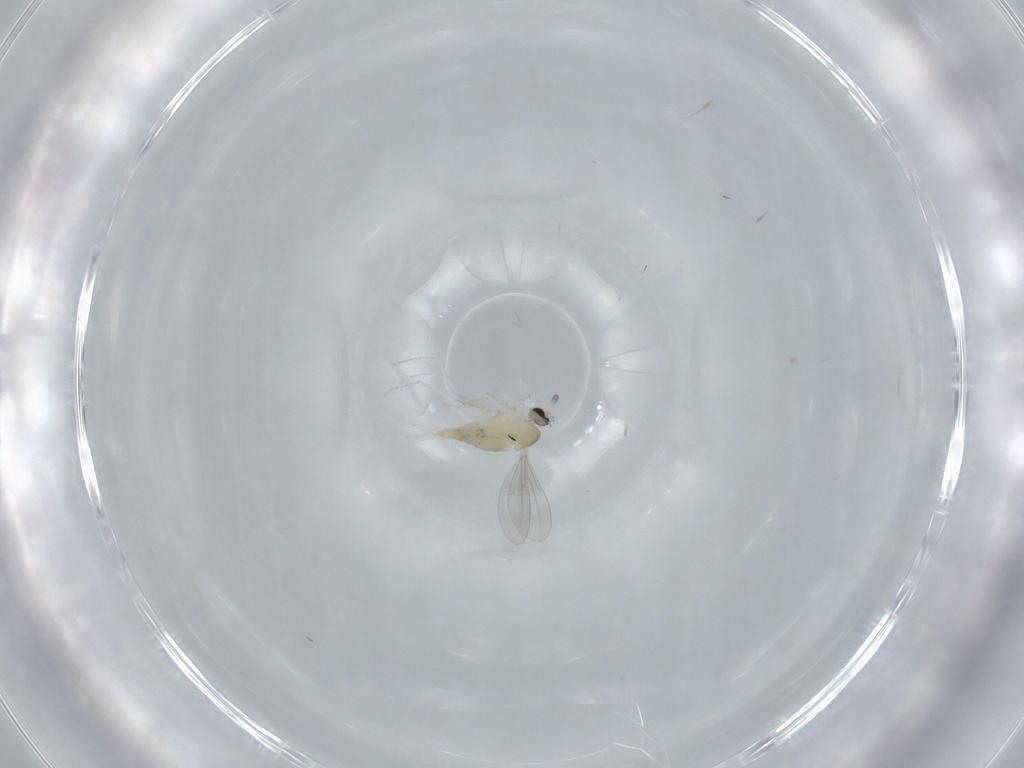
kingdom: Animalia
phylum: Arthropoda
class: Insecta
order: Diptera
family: Cecidomyiidae
